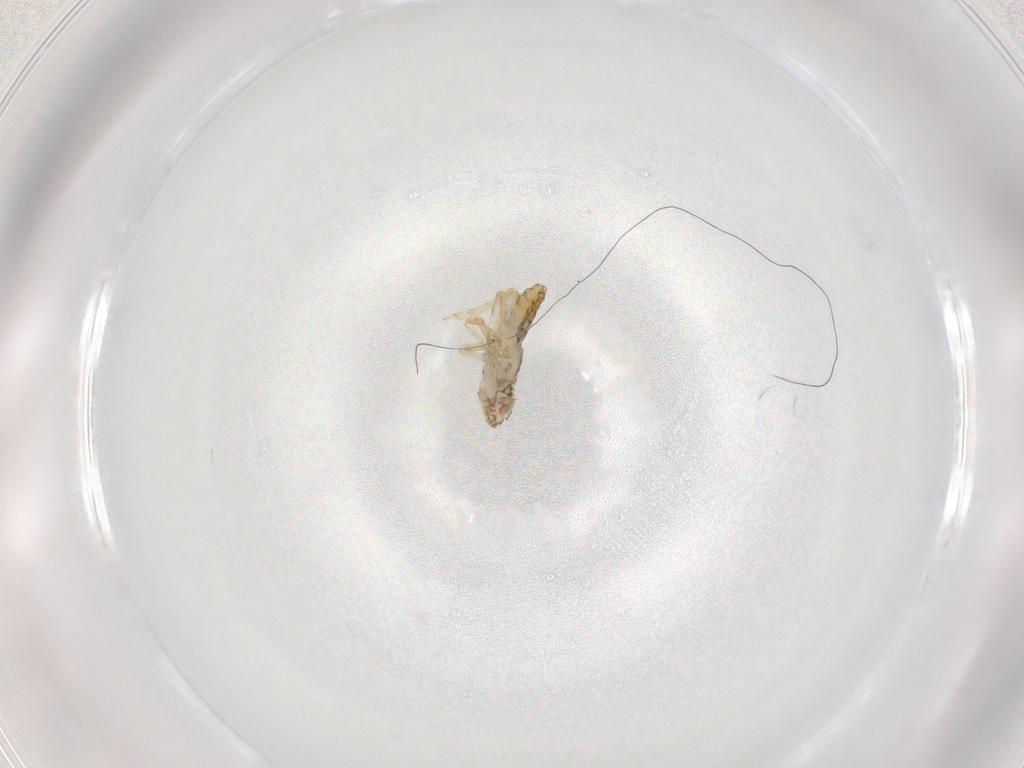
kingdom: Animalia
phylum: Arthropoda
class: Insecta
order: Hemiptera
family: Delphacidae
